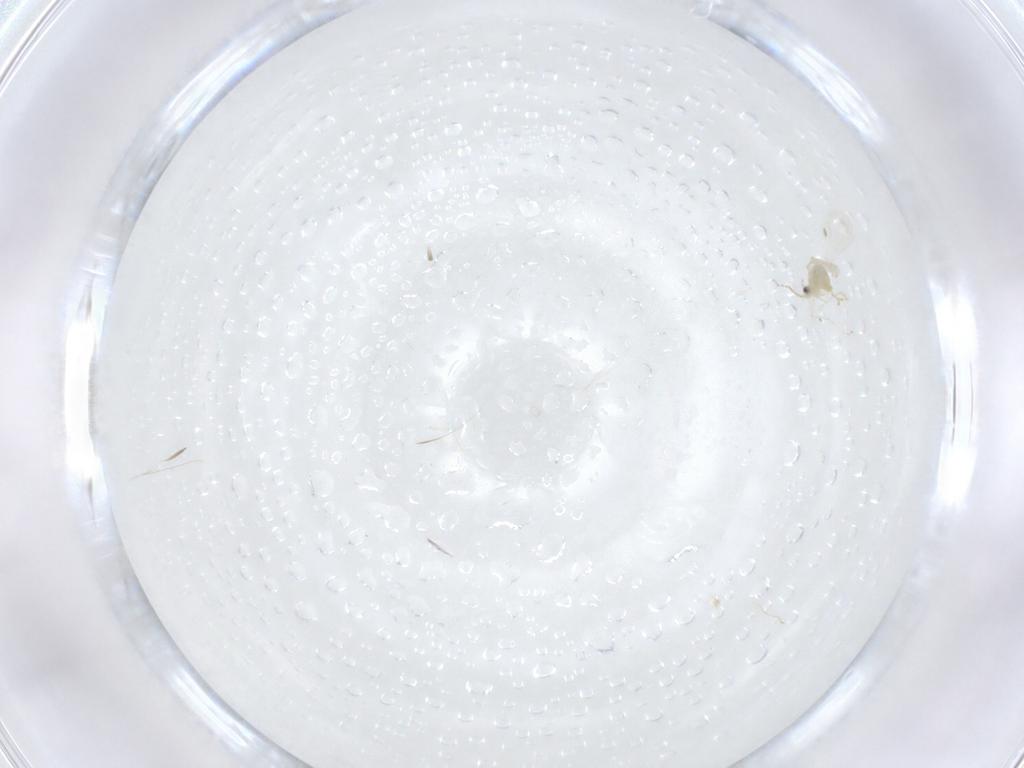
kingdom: Animalia
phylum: Arthropoda
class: Insecta
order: Diptera
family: Cecidomyiidae
